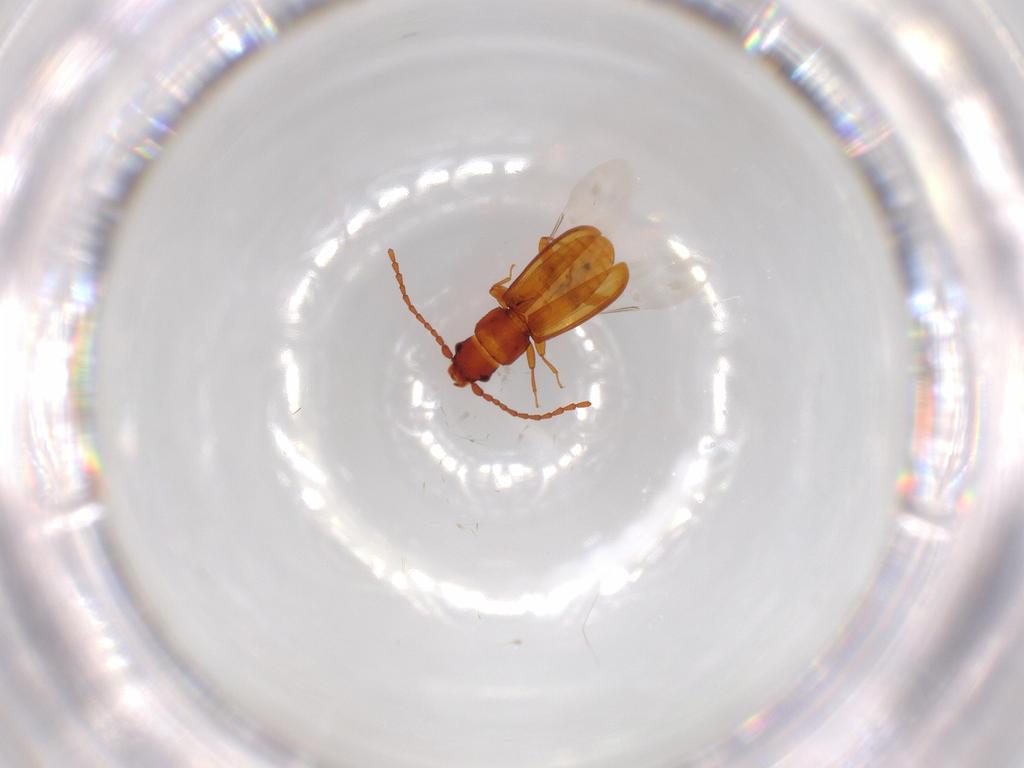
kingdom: Animalia
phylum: Arthropoda
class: Insecta
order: Coleoptera
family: Laemophloeidae
